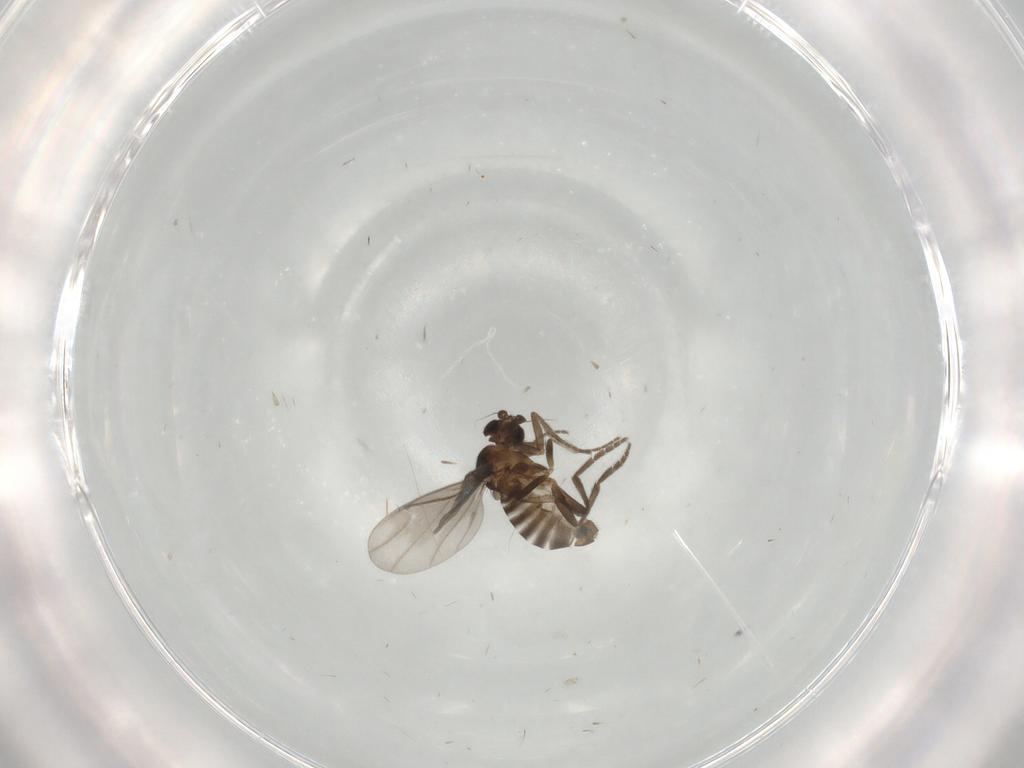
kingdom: Animalia
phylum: Arthropoda
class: Insecta
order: Diptera
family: Phoridae
